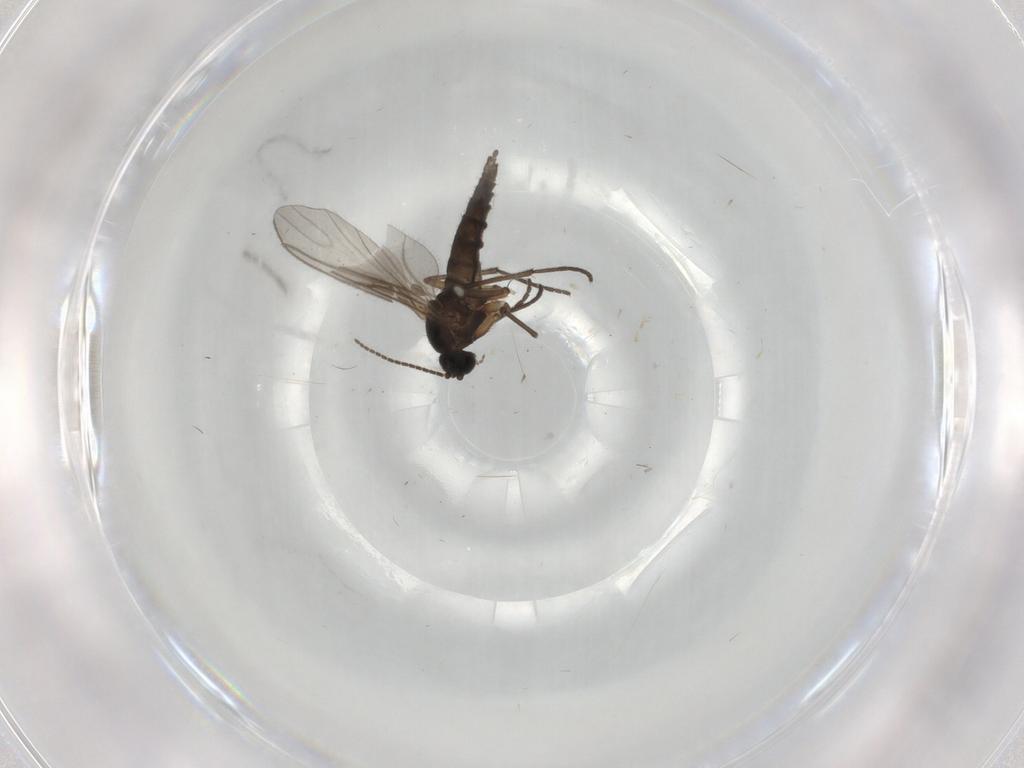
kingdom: Animalia
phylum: Arthropoda
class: Insecta
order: Diptera
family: Sciaridae
